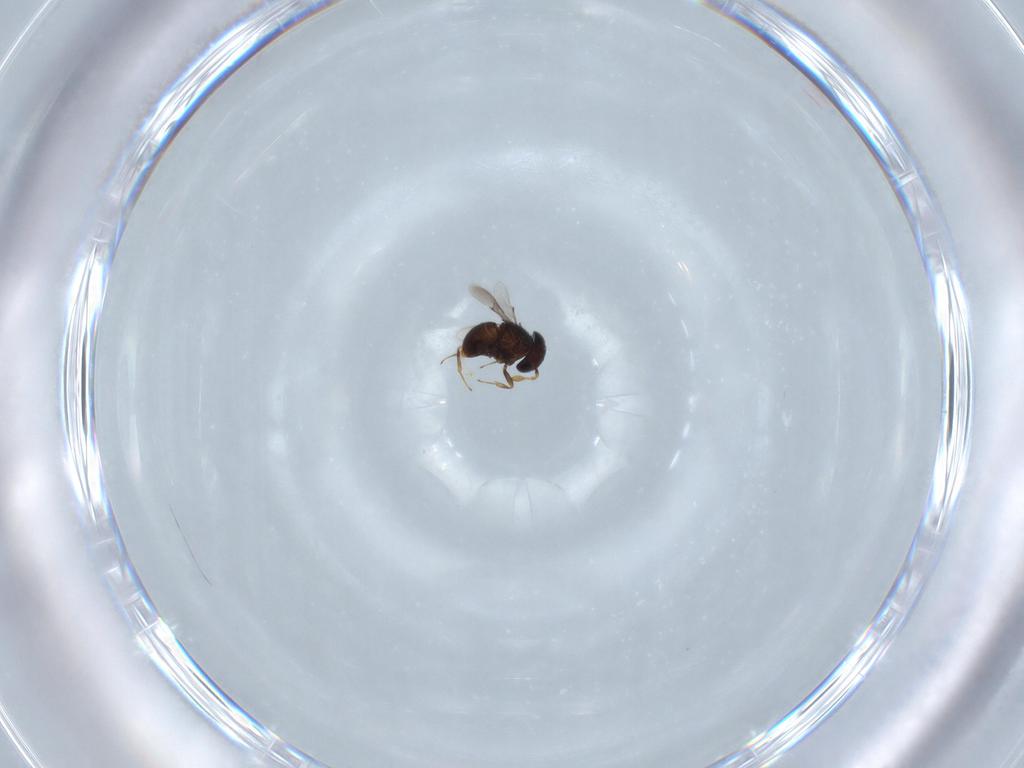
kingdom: Animalia
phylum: Arthropoda
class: Insecta
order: Hymenoptera
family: Scelionidae
